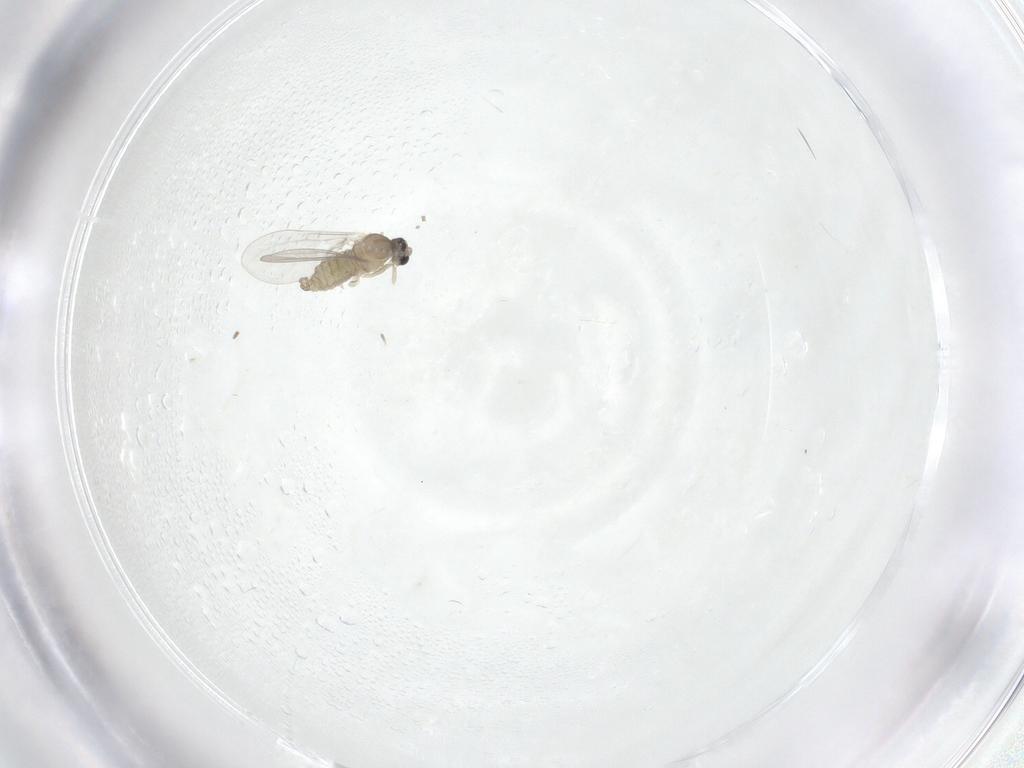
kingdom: Animalia
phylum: Arthropoda
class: Insecta
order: Diptera
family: Cecidomyiidae
